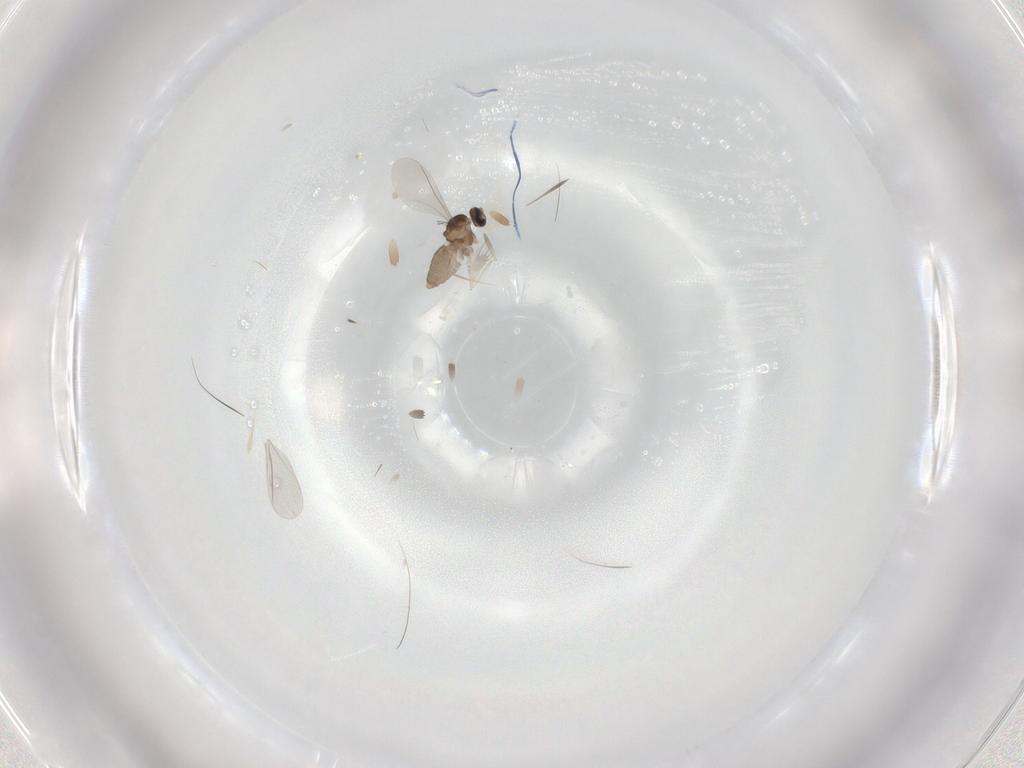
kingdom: Animalia
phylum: Arthropoda
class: Insecta
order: Diptera
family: Cecidomyiidae
